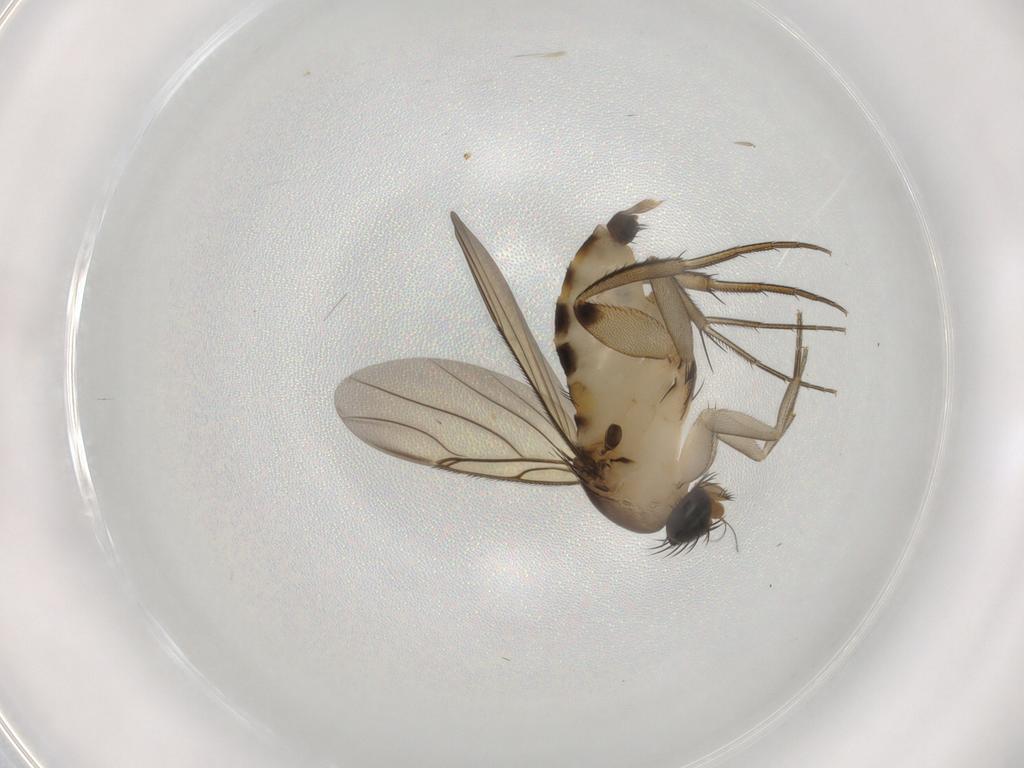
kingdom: Animalia
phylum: Arthropoda
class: Insecta
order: Diptera
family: Phoridae
